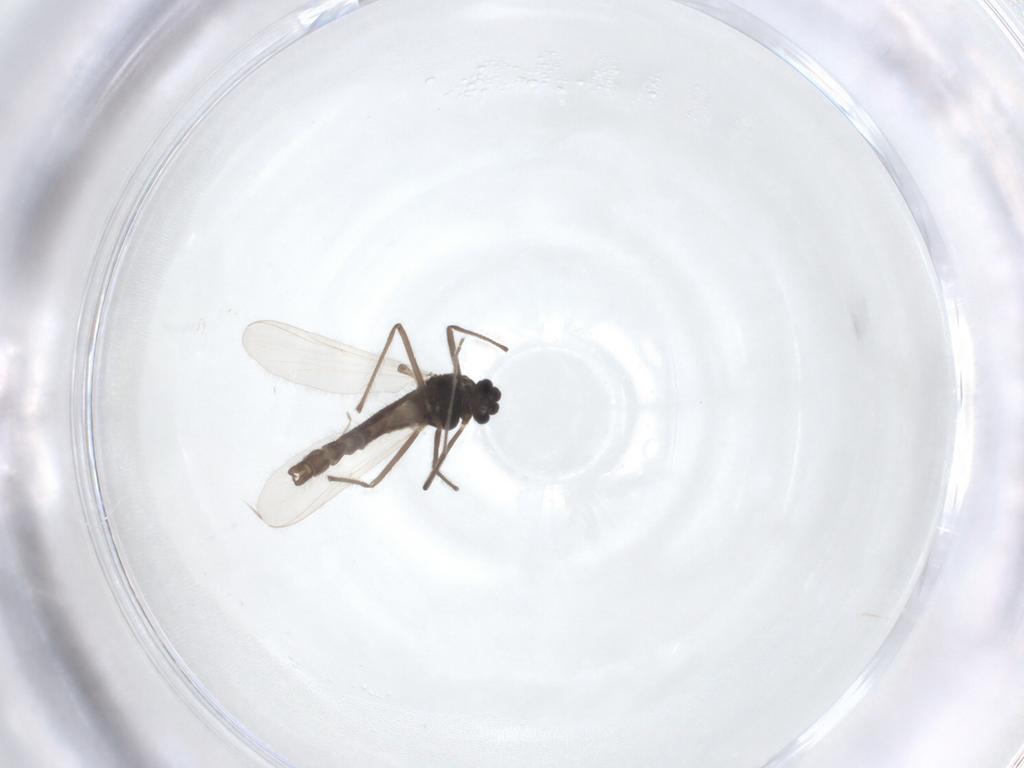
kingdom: Animalia
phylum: Arthropoda
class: Insecta
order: Diptera
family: Chironomidae
